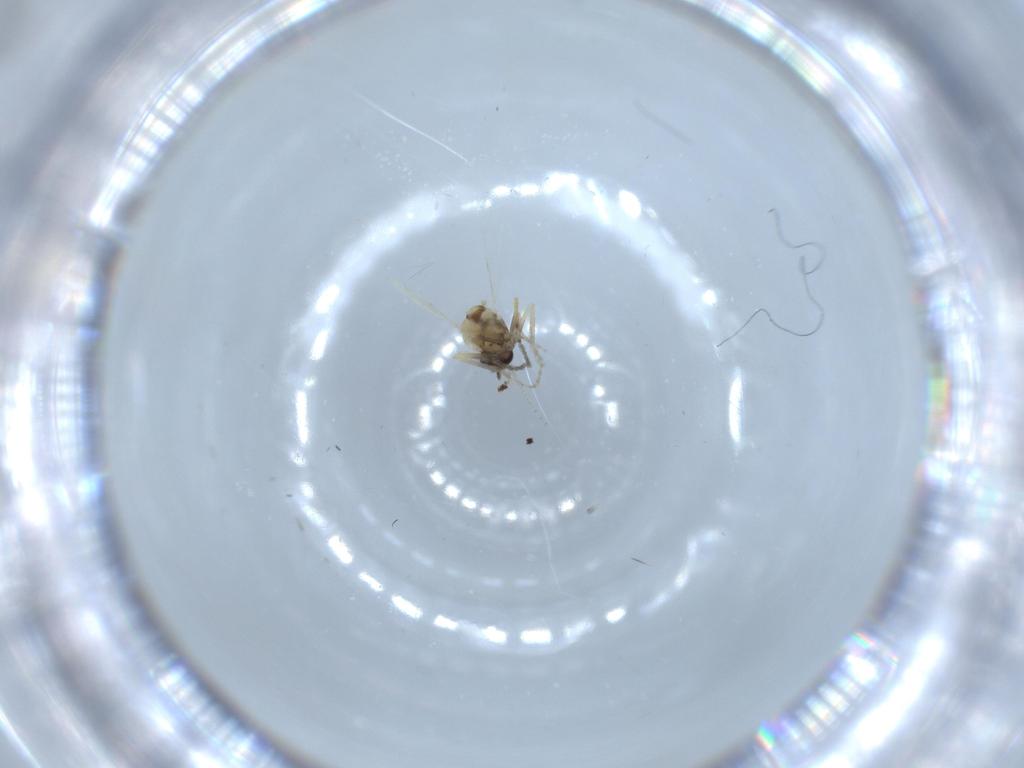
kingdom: Animalia
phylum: Arthropoda
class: Insecta
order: Diptera
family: Ceratopogonidae
